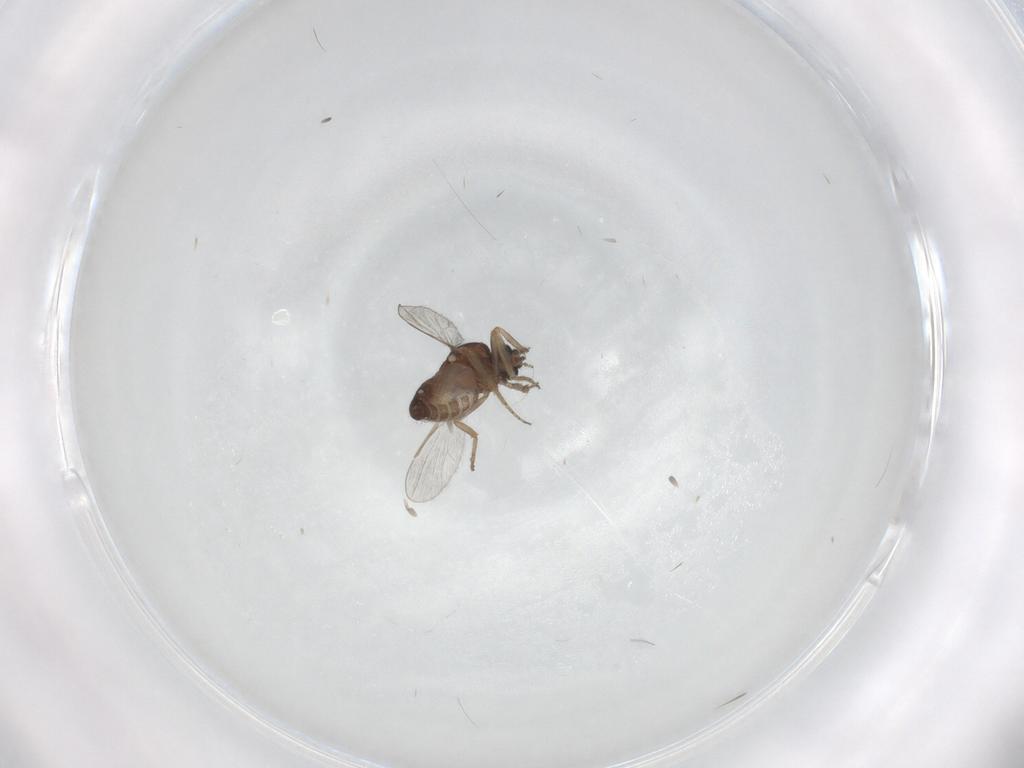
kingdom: Animalia
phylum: Arthropoda
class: Insecta
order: Diptera
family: Ceratopogonidae
